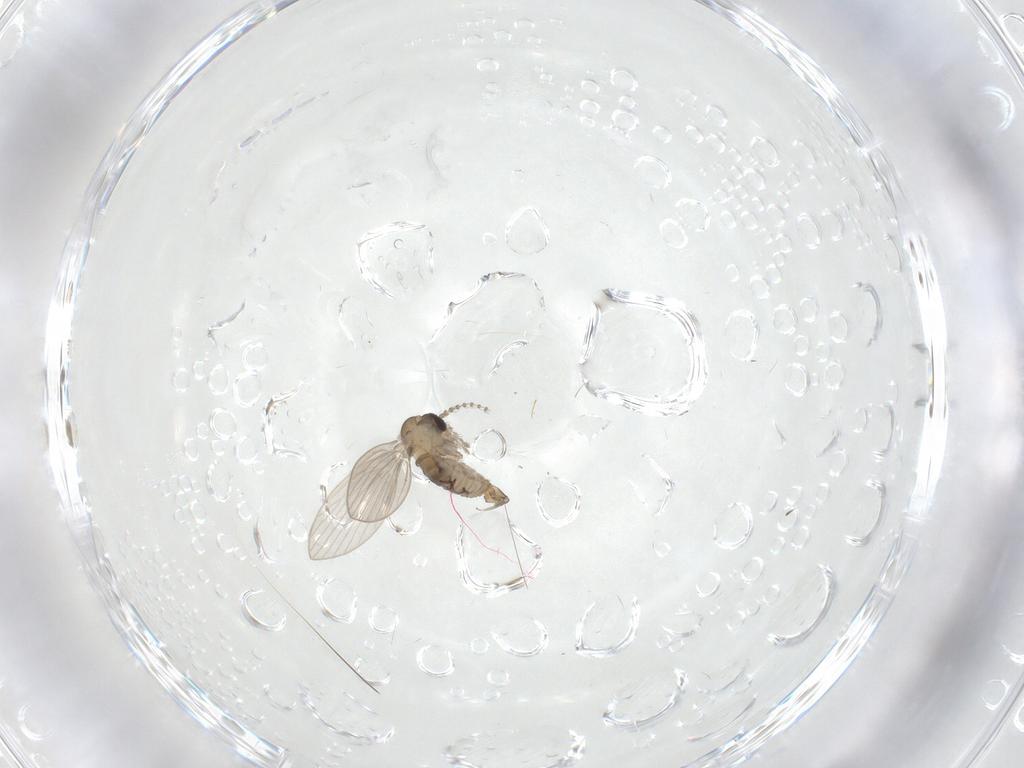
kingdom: Animalia
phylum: Arthropoda
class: Insecta
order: Diptera
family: Cecidomyiidae
